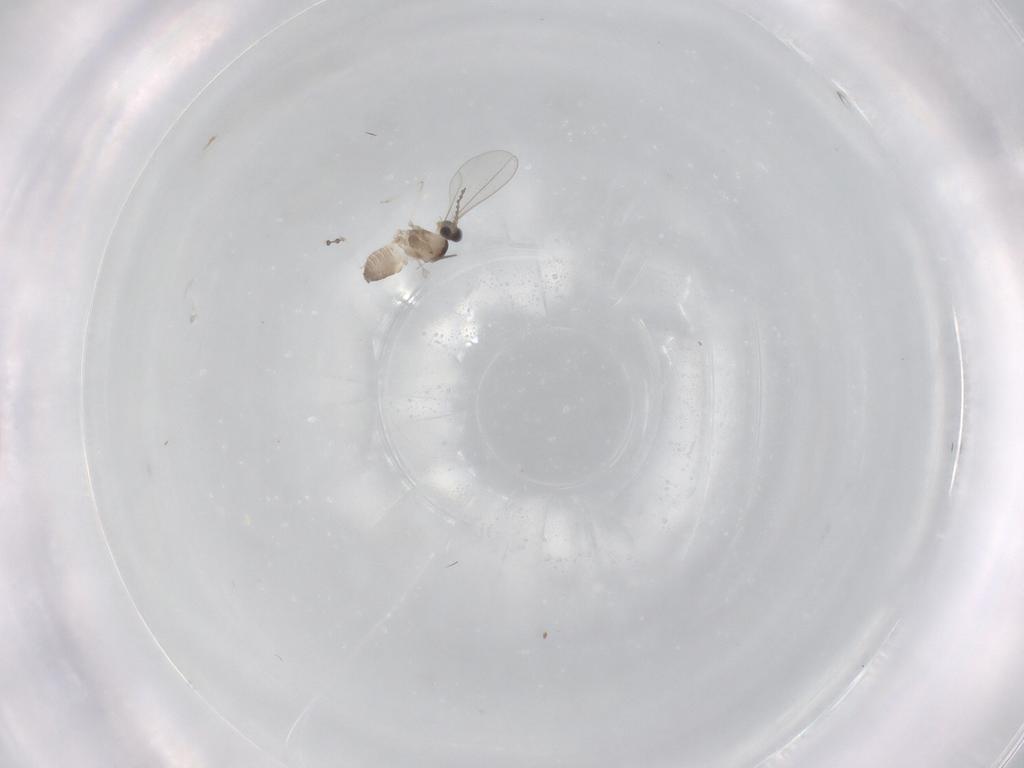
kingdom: Animalia
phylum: Arthropoda
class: Insecta
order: Diptera
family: Cecidomyiidae
